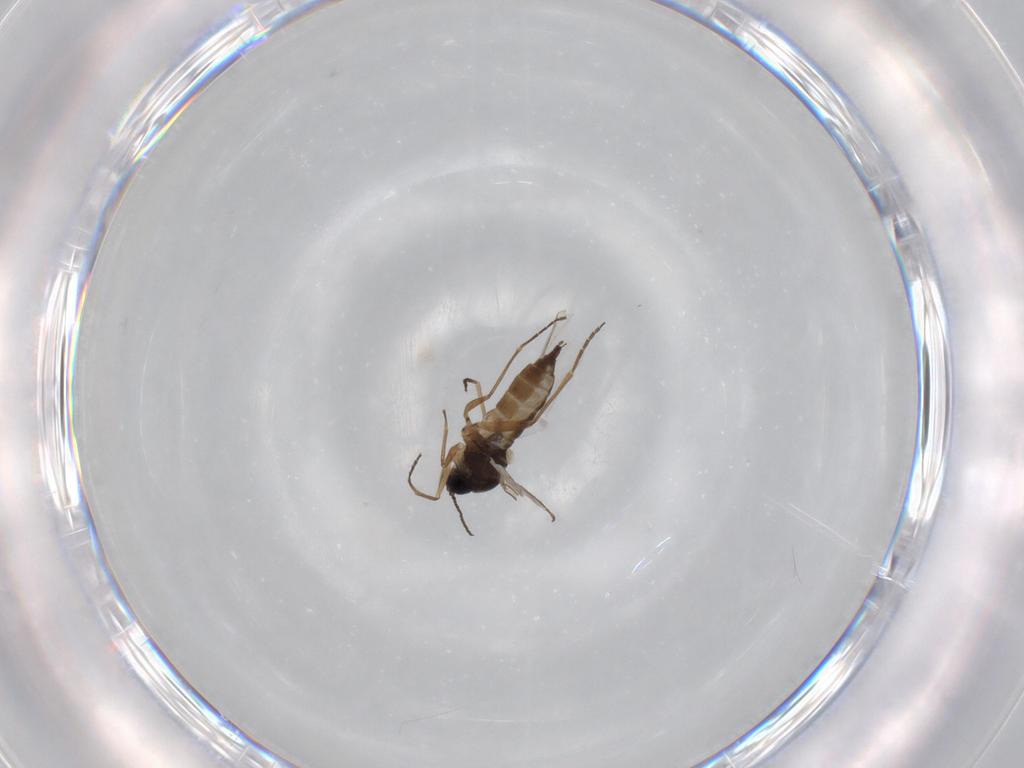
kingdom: Animalia
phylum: Arthropoda
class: Insecta
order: Diptera
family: Sciaridae
